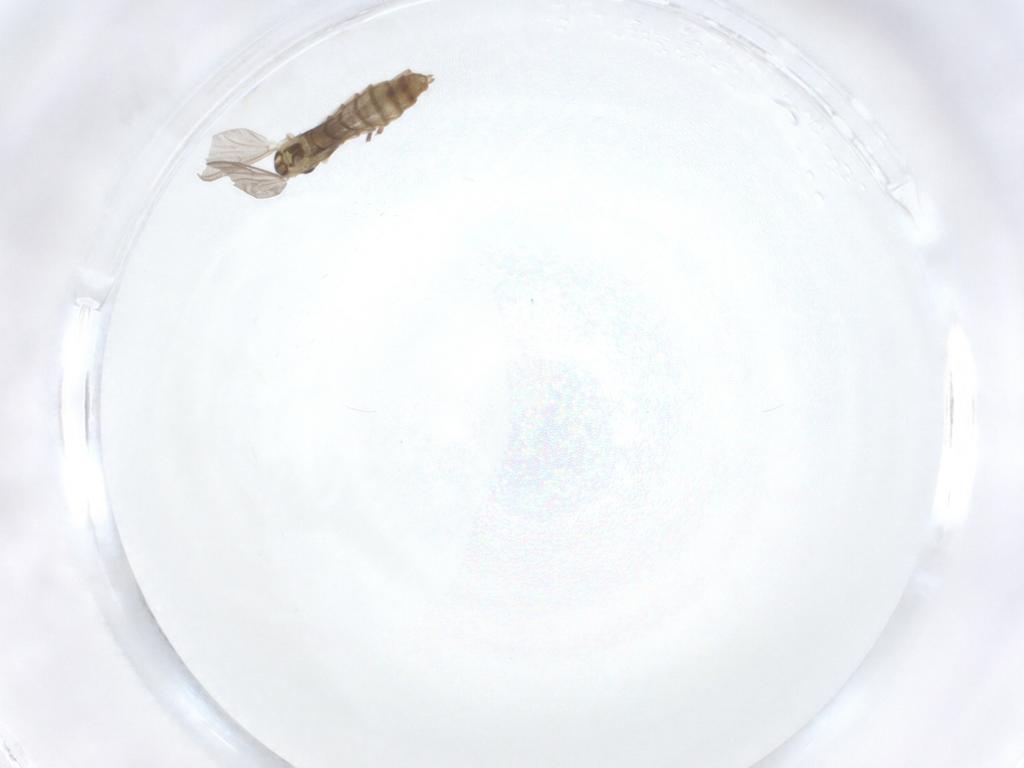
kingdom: Animalia
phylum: Arthropoda
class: Insecta
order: Diptera
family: Chironomidae
